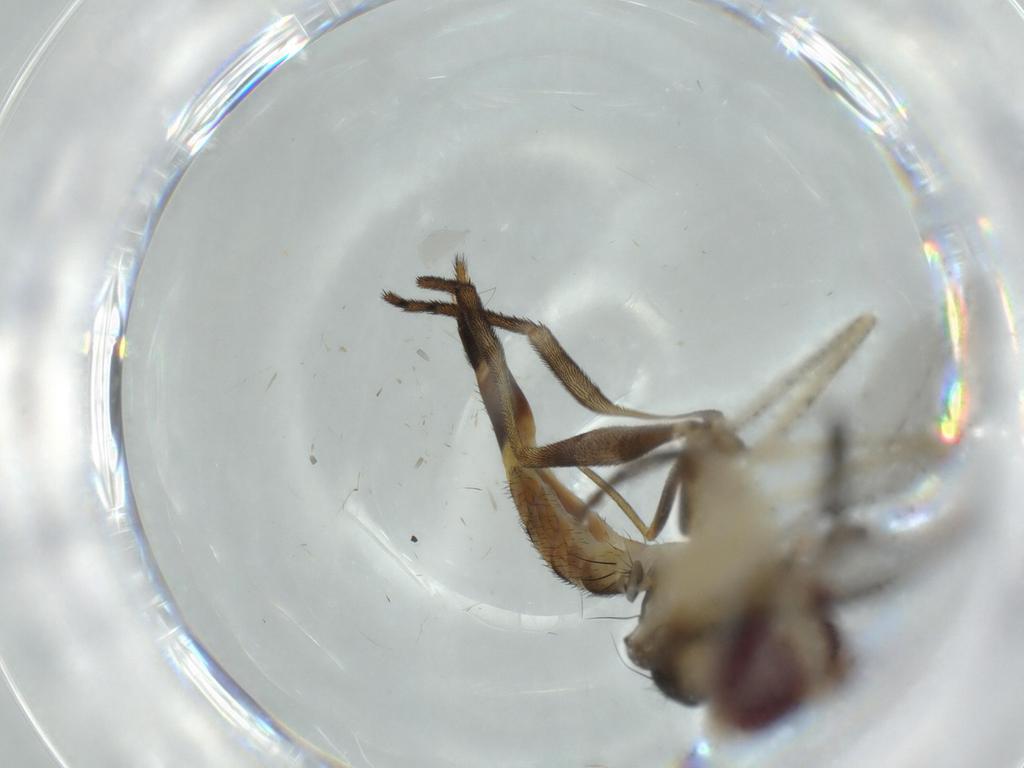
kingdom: Animalia
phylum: Arthropoda
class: Insecta
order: Diptera
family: Conopidae
